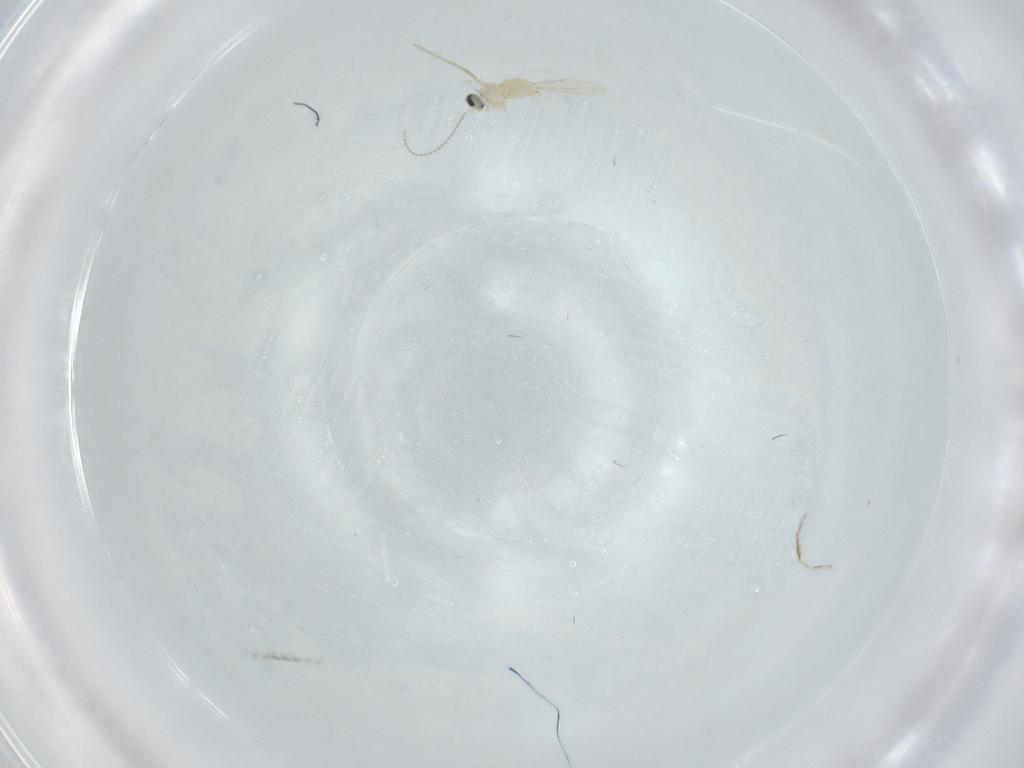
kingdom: Animalia
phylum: Arthropoda
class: Insecta
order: Diptera
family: Cecidomyiidae
